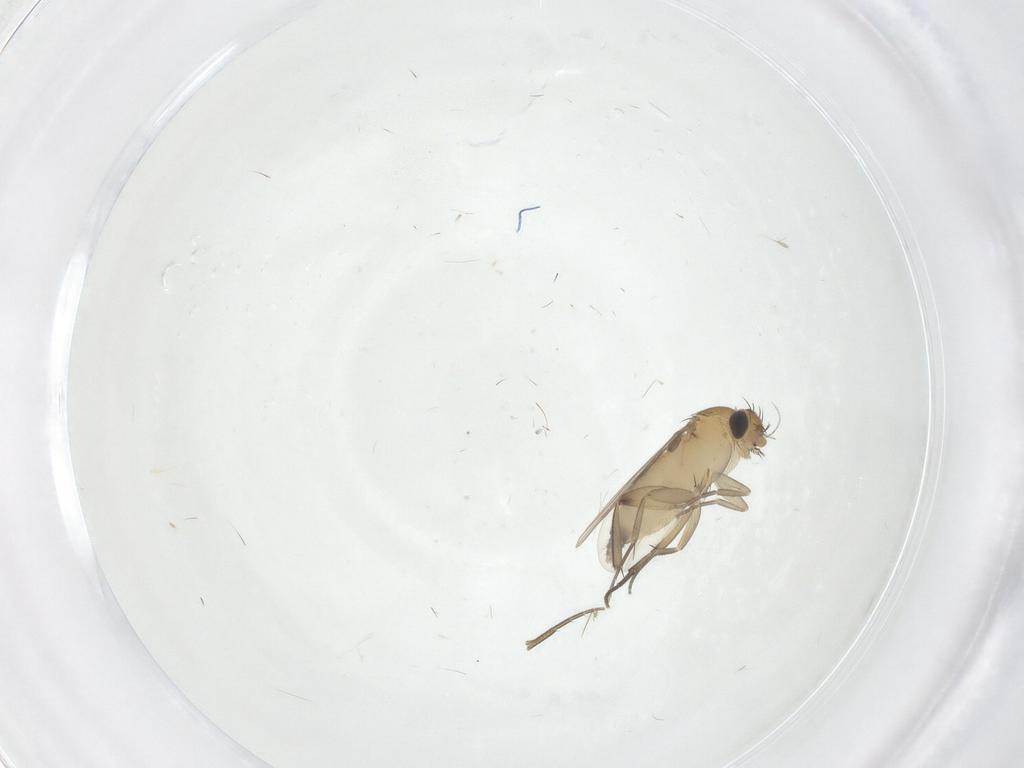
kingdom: Animalia
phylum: Arthropoda
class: Insecta
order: Diptera
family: Phoridae
